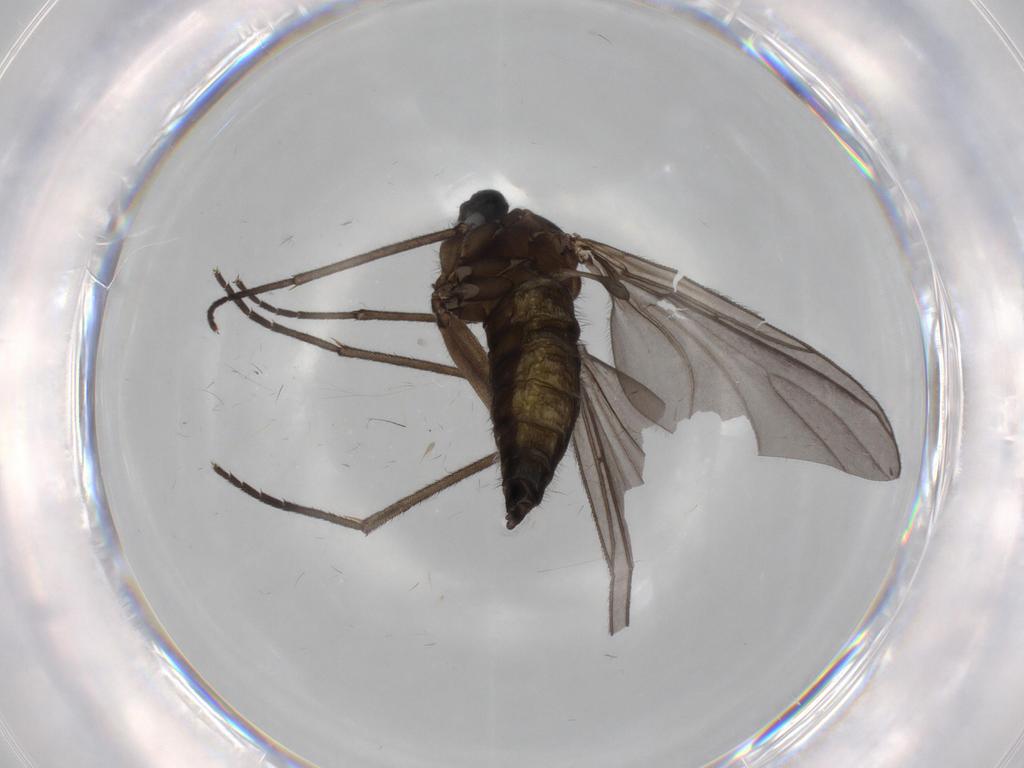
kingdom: Animalia
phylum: Arthropoda
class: Insecta
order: Diptera
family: Sciaridae
